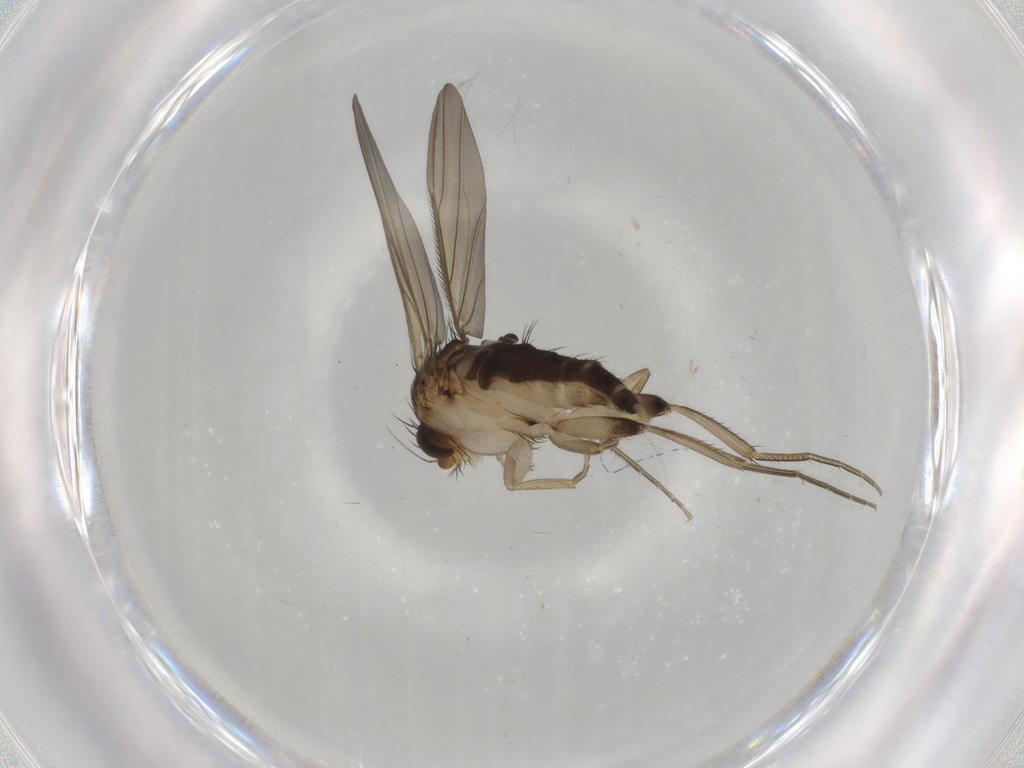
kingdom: Animalia
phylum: Arthropoda
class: Insecta
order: Diptera
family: Phoridae
